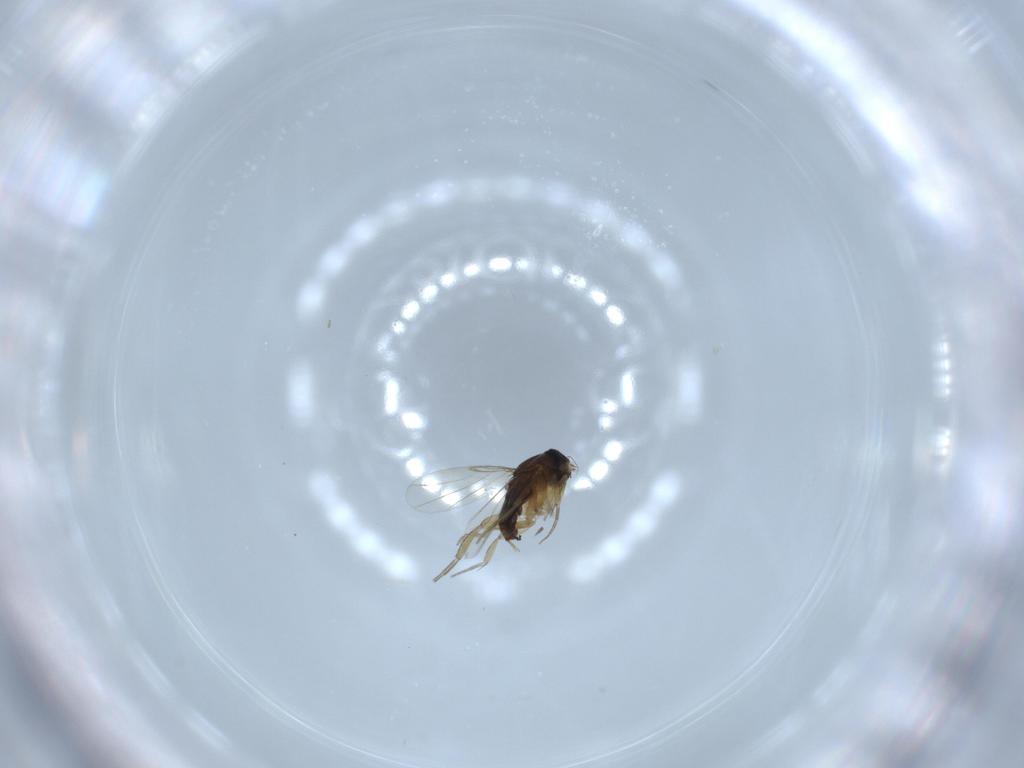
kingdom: Animalia
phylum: Arthropoda
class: Insecta
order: Diptera
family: Phoridae
